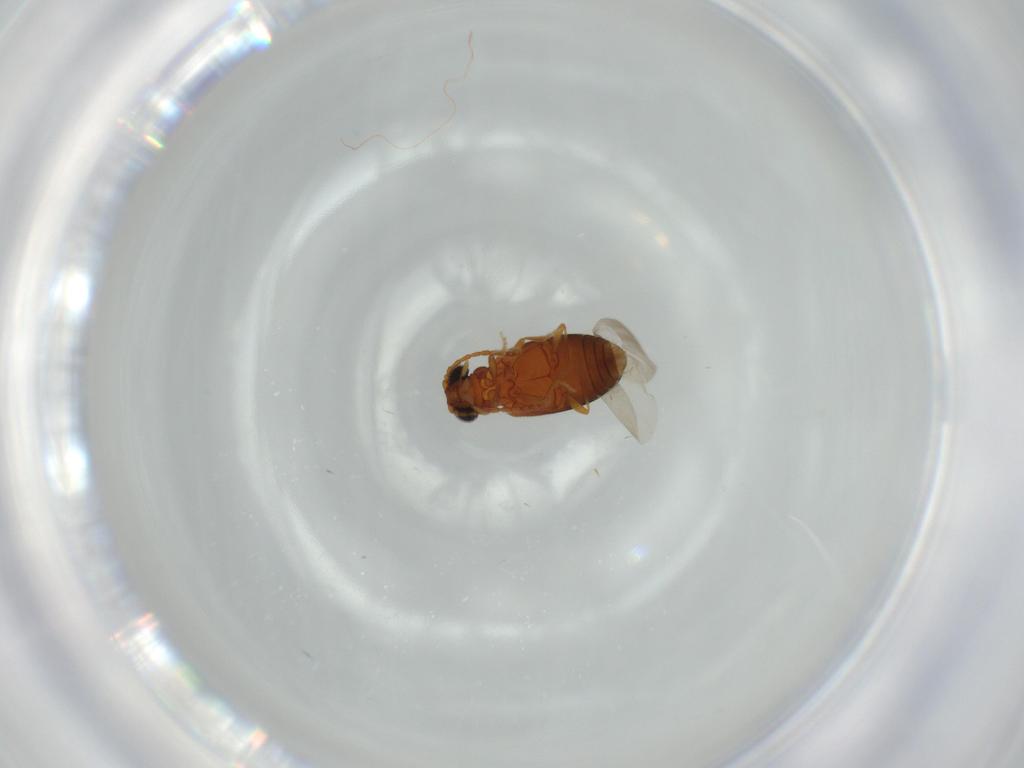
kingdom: Animalia
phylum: Arthropoda
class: Insecta
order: Coleoptera
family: Aderidae
